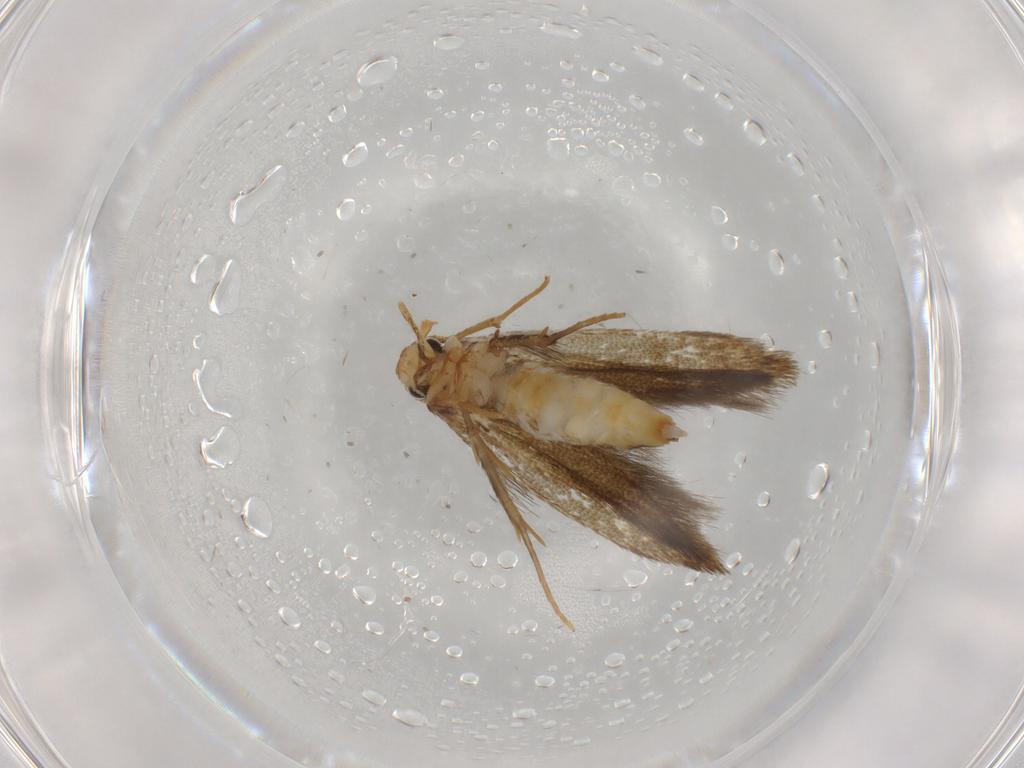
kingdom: Animalia
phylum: Arthropoda
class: Insecta
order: Lepidoptera
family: Tineidae
